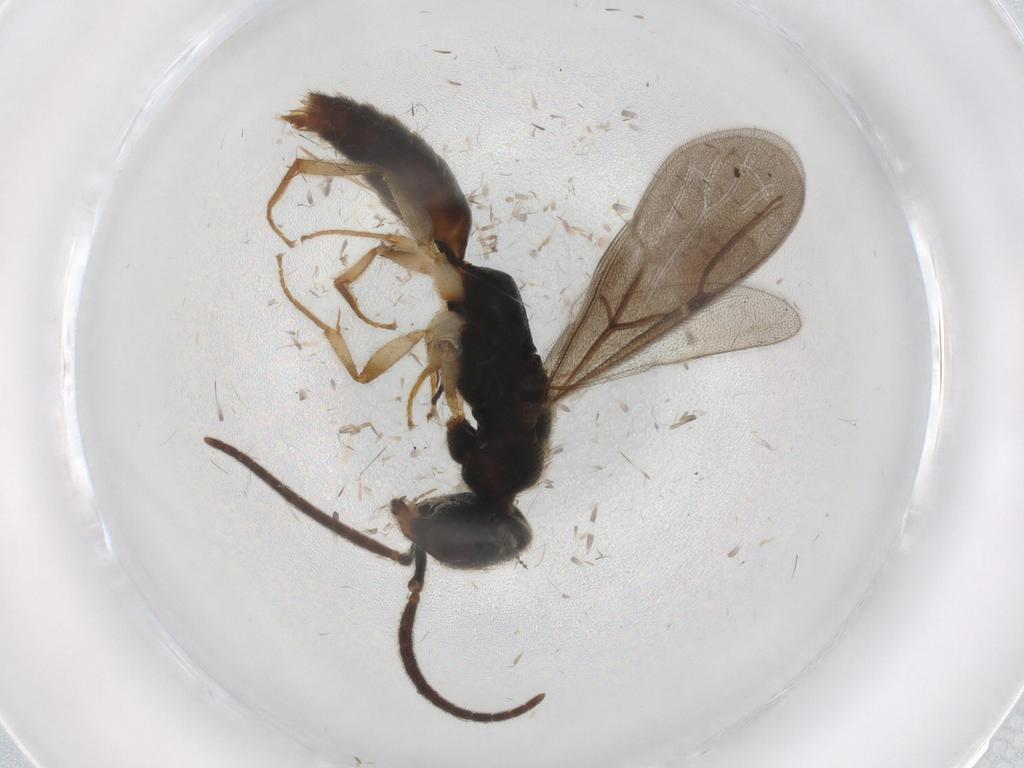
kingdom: Animalia
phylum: Arthropoda
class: Insecta
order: Hymenoptera
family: Bethylidae
